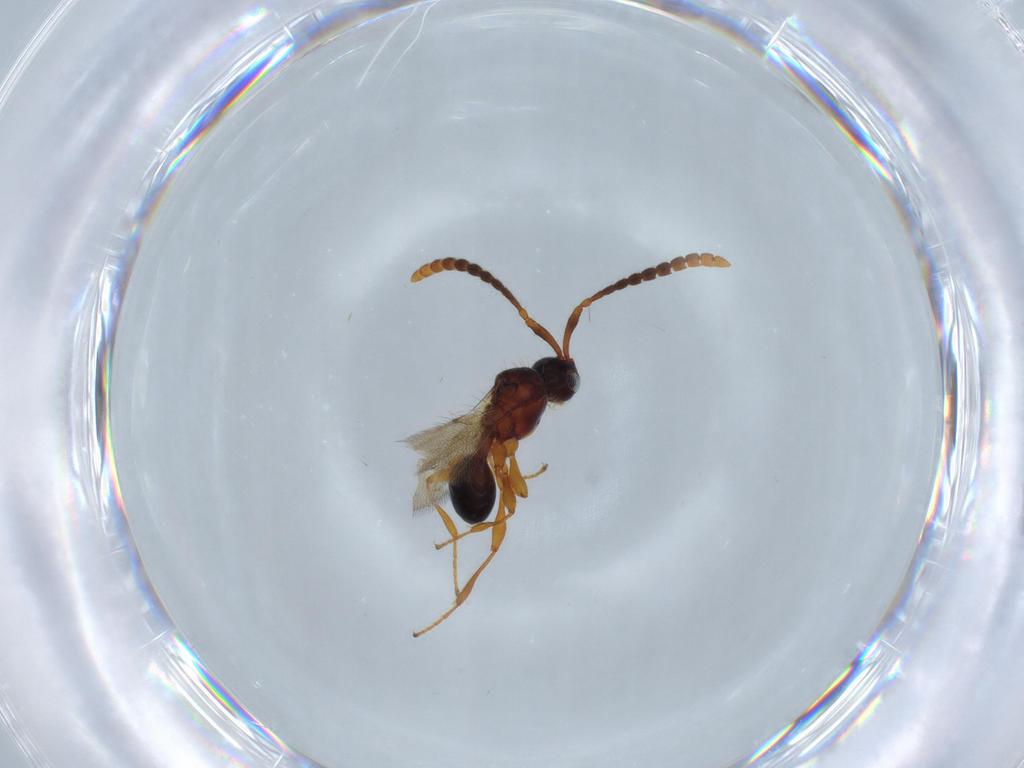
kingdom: Animalia
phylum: Arthropoda
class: Insecta
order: Hymenoptera
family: Diapriidae
